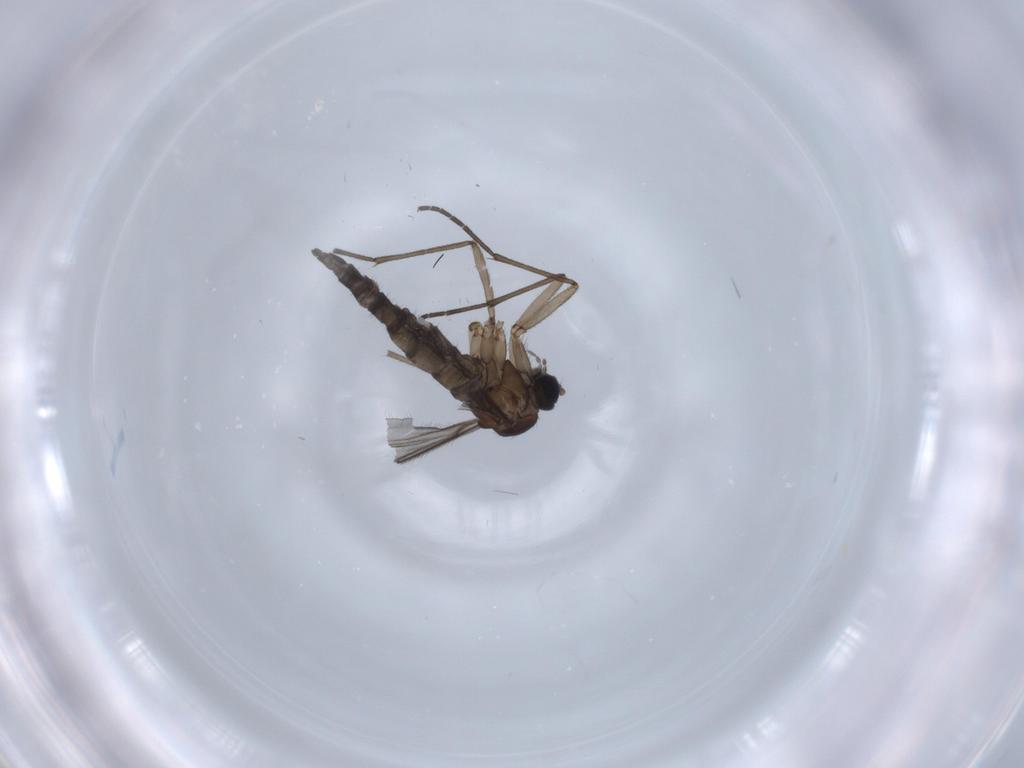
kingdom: Animalia
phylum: Arthropoda
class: Insecta
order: Diptera
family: Sciaridae
